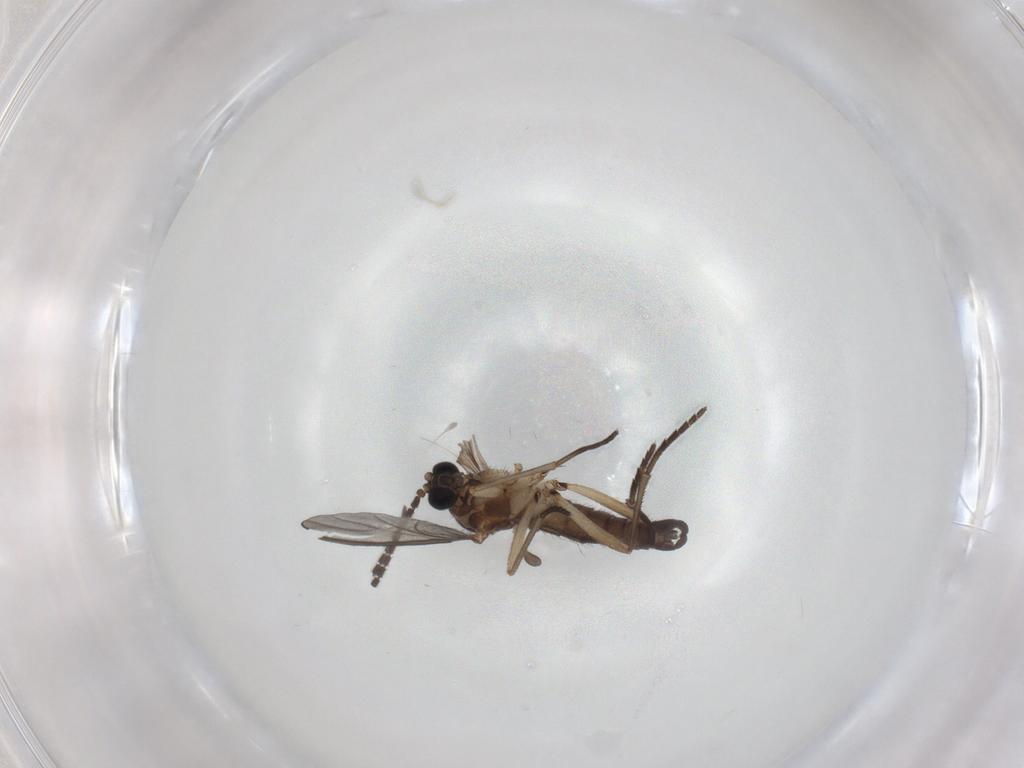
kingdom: Animalia
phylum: Arthropoda
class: Insecta
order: Diptera
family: Sciaridae
